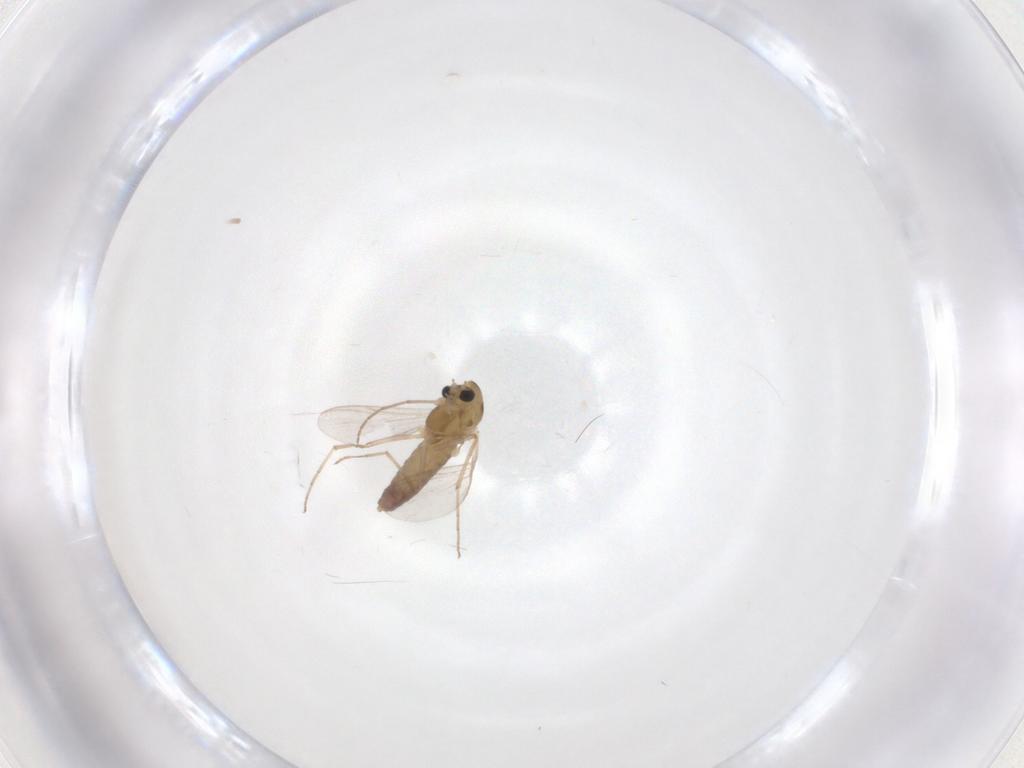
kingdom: Animalia
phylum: Arthropoda
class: Insecta
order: Diptera
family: Chironomidae
